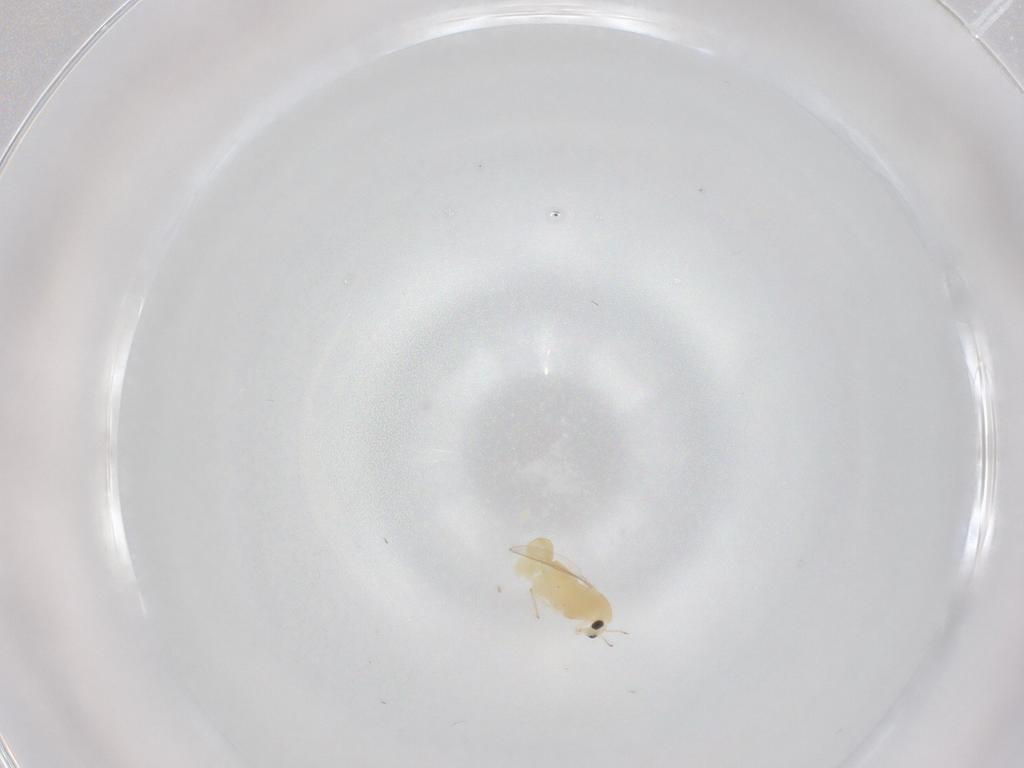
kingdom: Animalia
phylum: Arthropoda
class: Insecta
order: Diptera
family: Chironomidae
